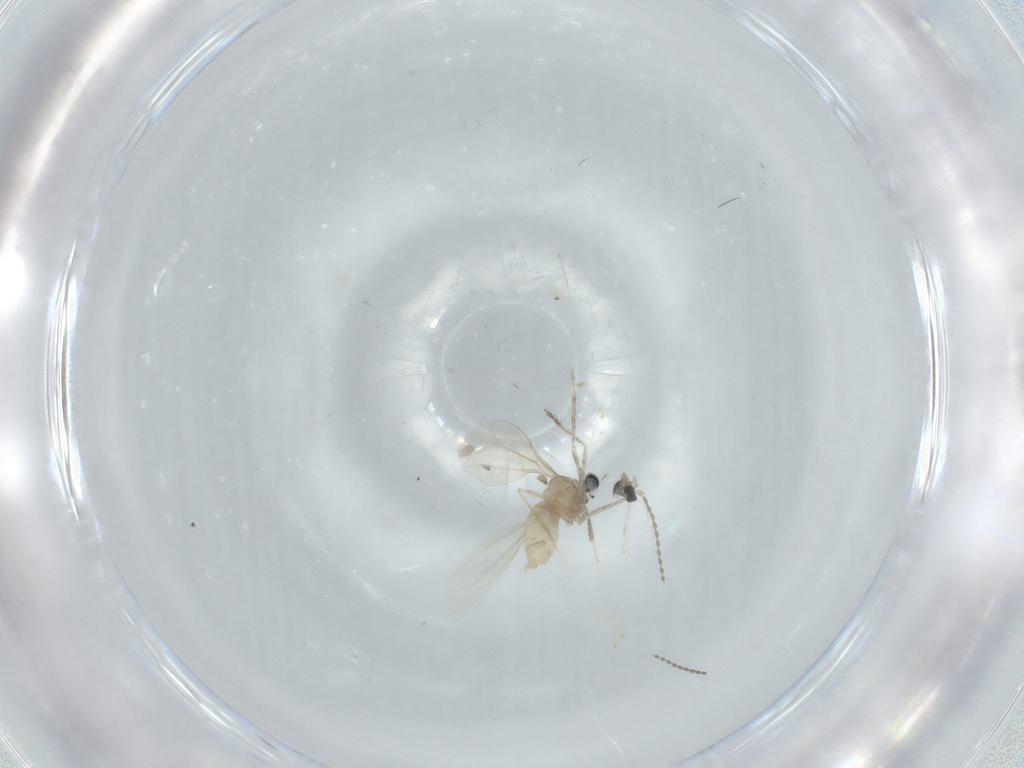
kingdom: Animalia
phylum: Arthropoda
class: Insecta
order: Diptera
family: Cecidomyiidae
